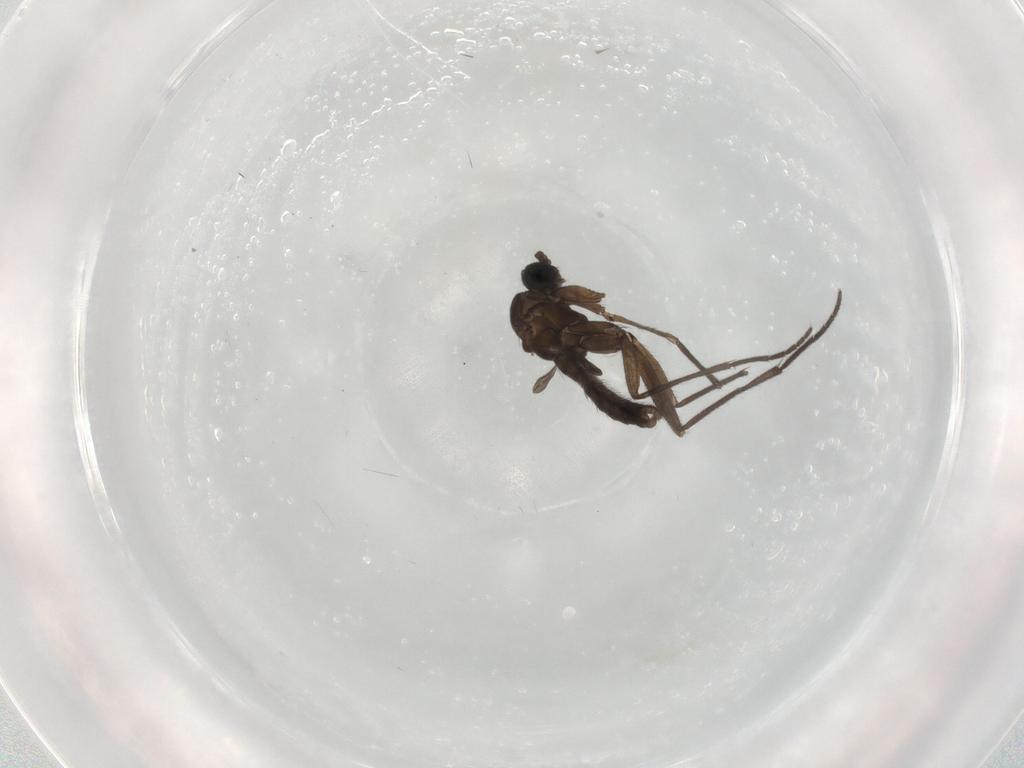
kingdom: Animalia
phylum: Arthropoda
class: Insecta
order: Diptera
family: Sciaridae
